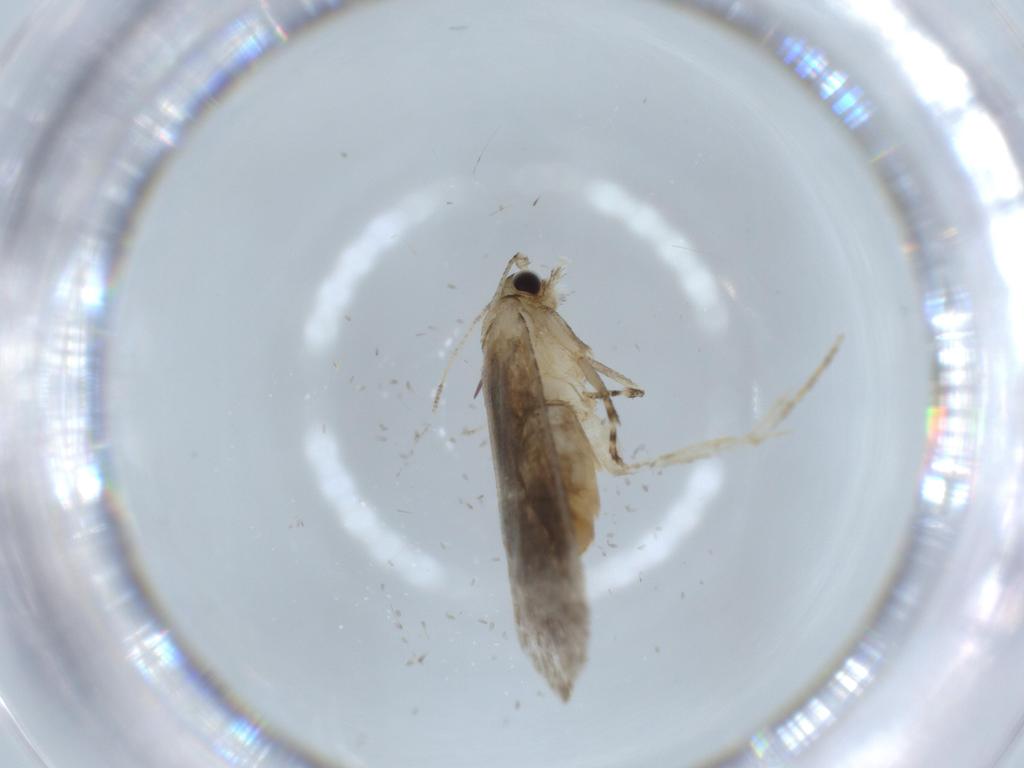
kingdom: Animalia
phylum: Arthropoda
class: Insecta
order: Lepidoptera
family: Tineidae
